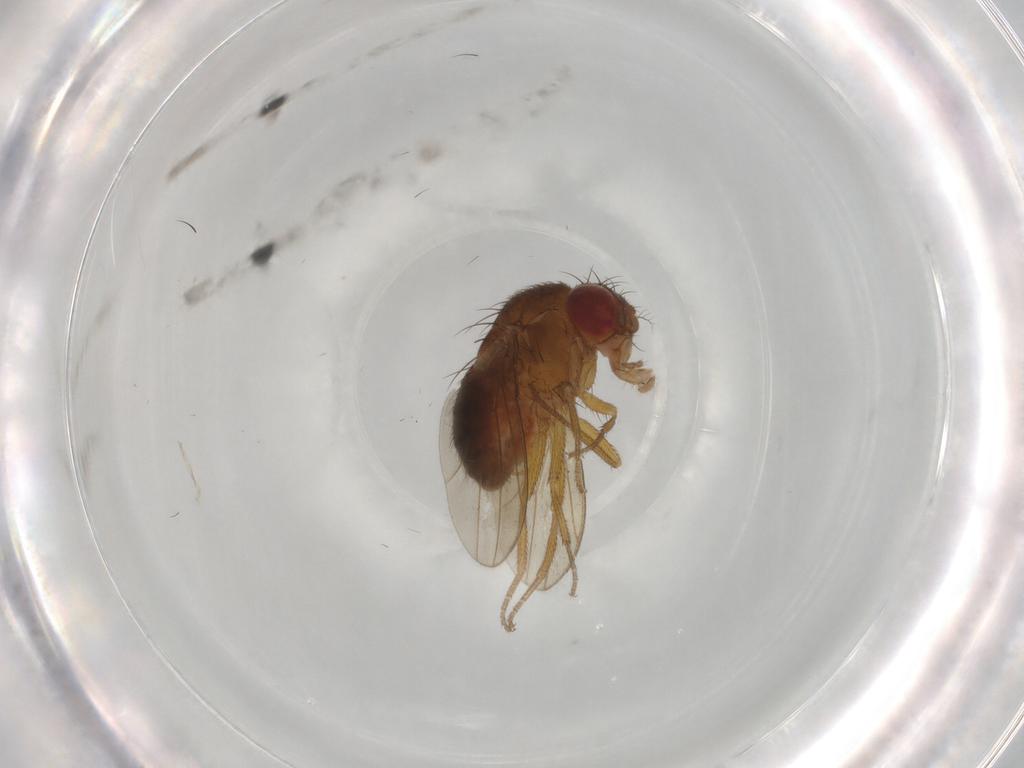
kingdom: Animalia
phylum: Arthropoda
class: Insecta
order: Diptera
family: Drosophilidae
